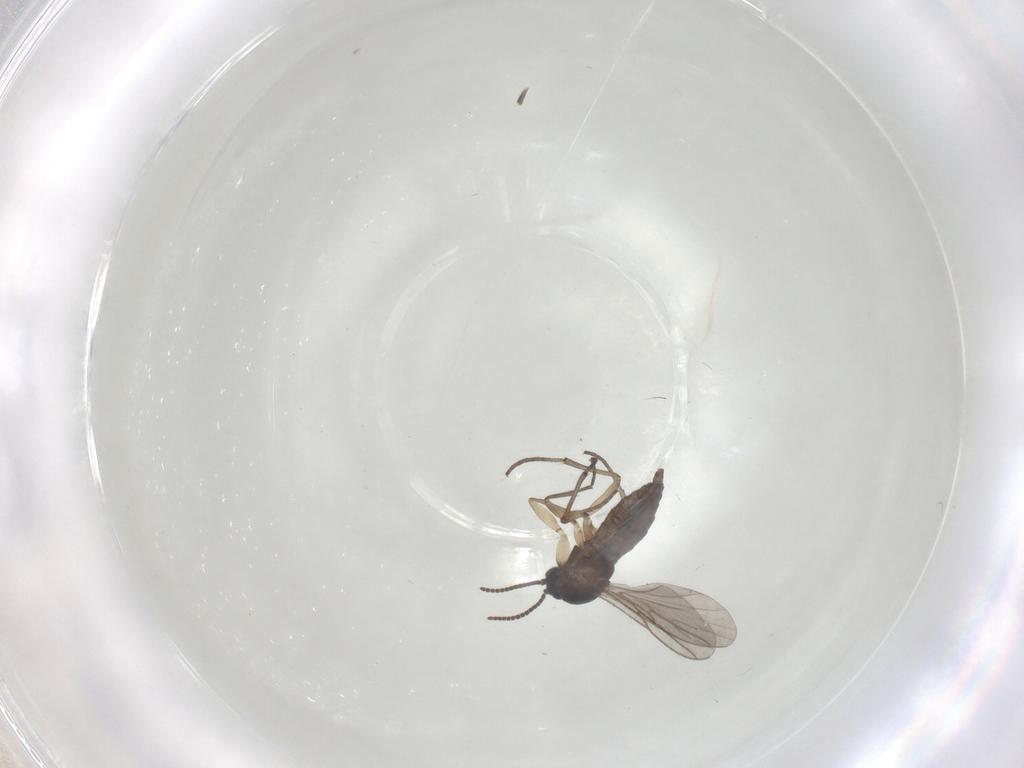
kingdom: Animalia
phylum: Arthropoda
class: Insecta
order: Diptera
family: Sciaridae
